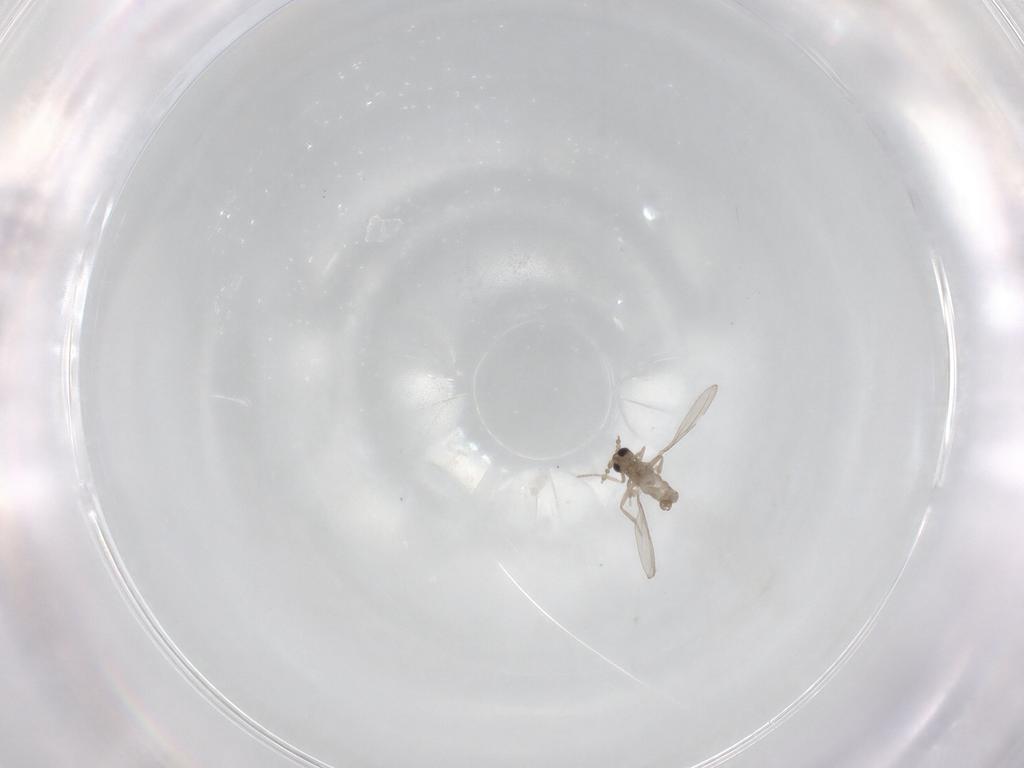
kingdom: Animalia
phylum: Arthropoda
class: Insecta
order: Diptera
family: Cecidomyiidae
